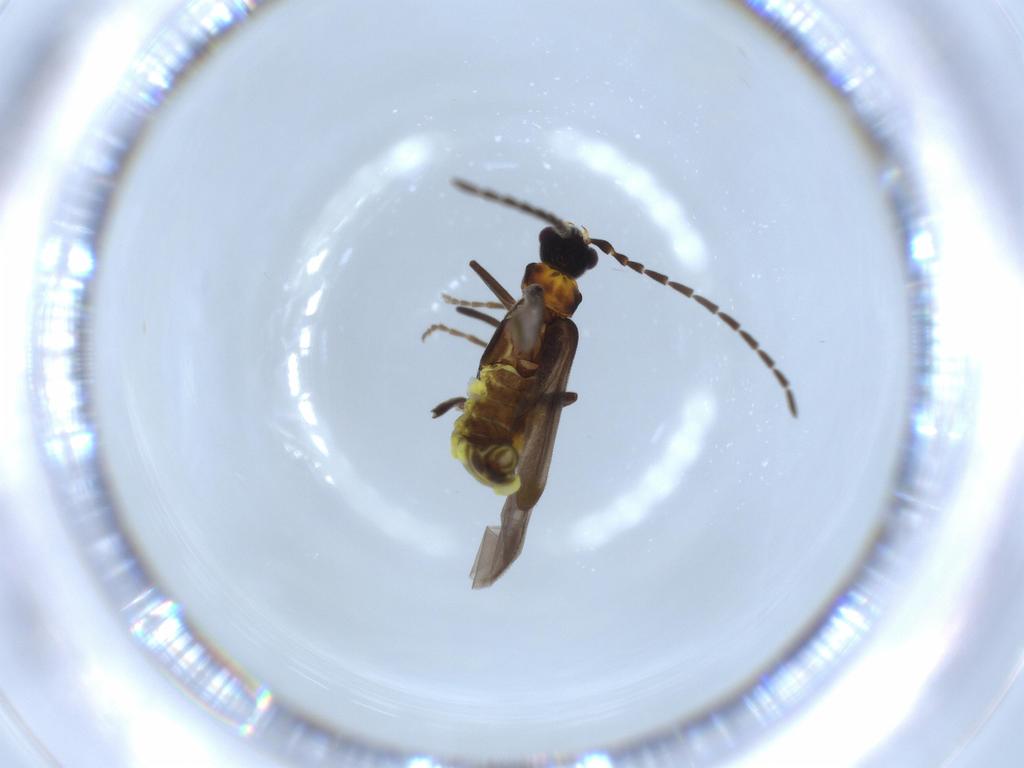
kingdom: Animalia
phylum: Arthropoda
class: Insecta
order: Coleoptera
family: Cantharidae
